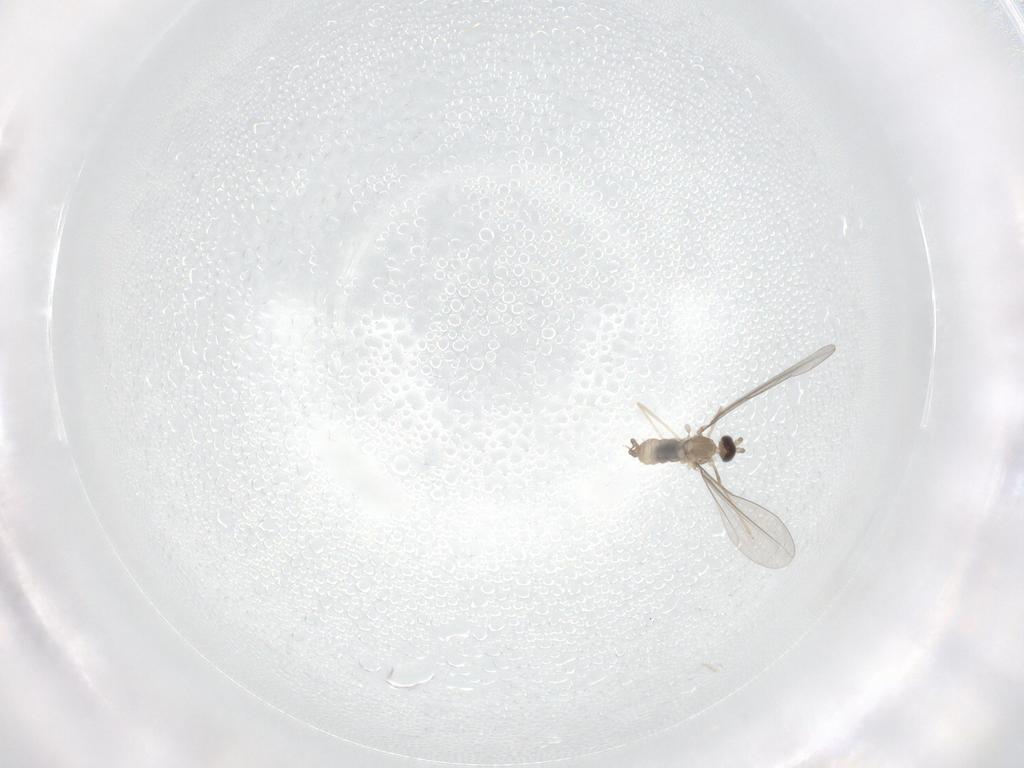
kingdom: Animalia
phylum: Arthropoda
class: Insecta
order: Diptera
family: Cecidomyiidae
